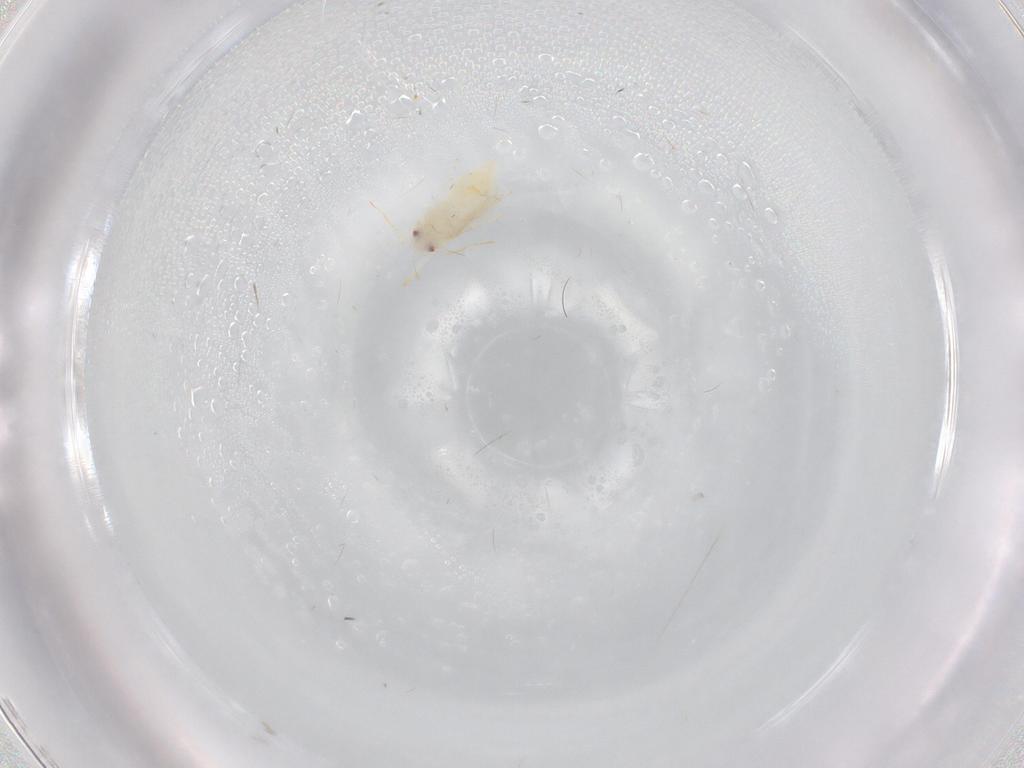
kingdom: Animalia
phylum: Arthropoda
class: Insecta
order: Hemiptera
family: Aleyrodidae
